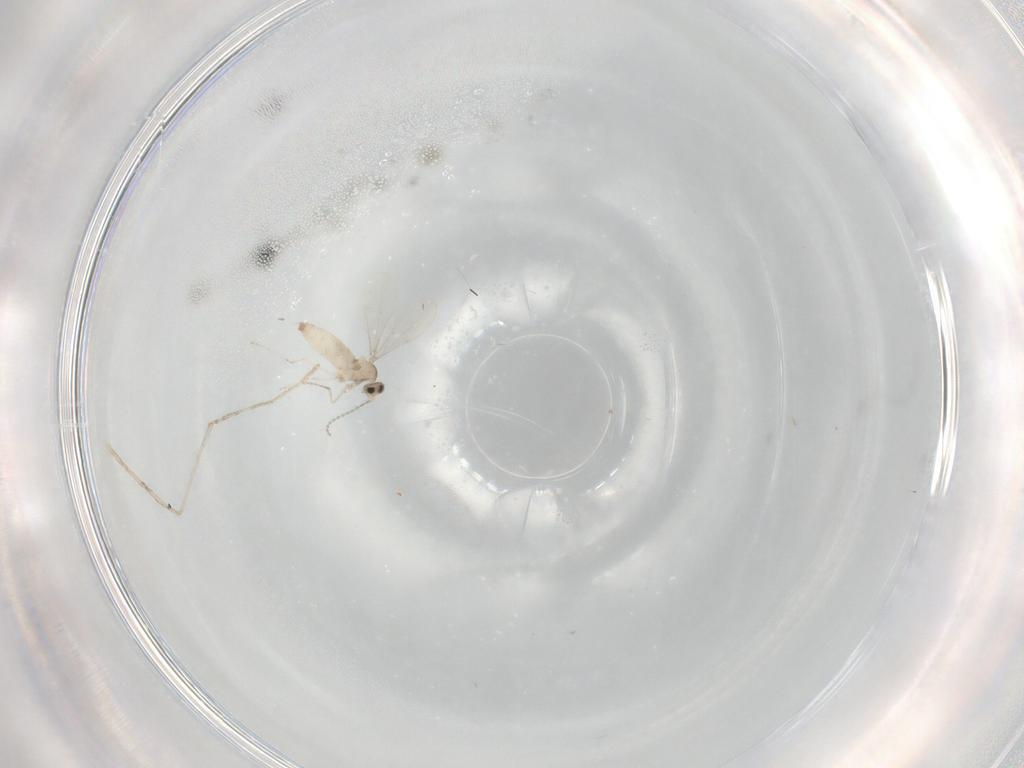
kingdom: Animalia
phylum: Arthropoda
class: Insecta
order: Diptera
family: Cecidomyiidae
